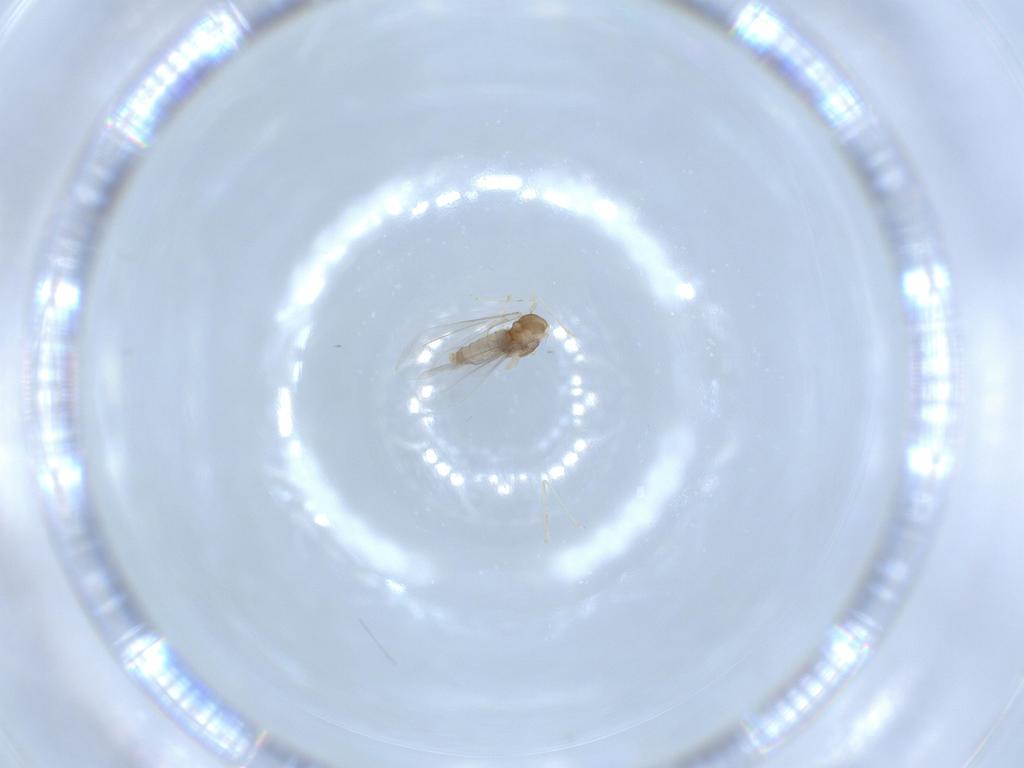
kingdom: Animalia
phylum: Arthropoda
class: Insecta
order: Diptera
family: Cecidomyiidae
